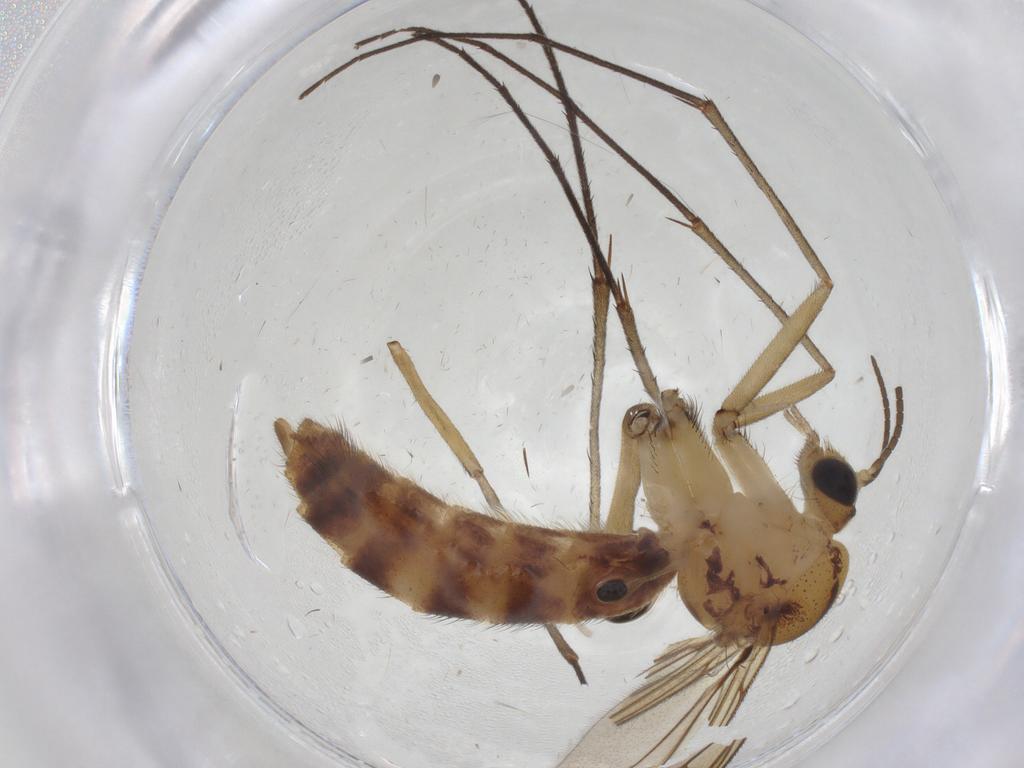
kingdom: Animalia
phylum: Arthropoda
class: Insecta
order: Diptera
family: Mycetophilidae
